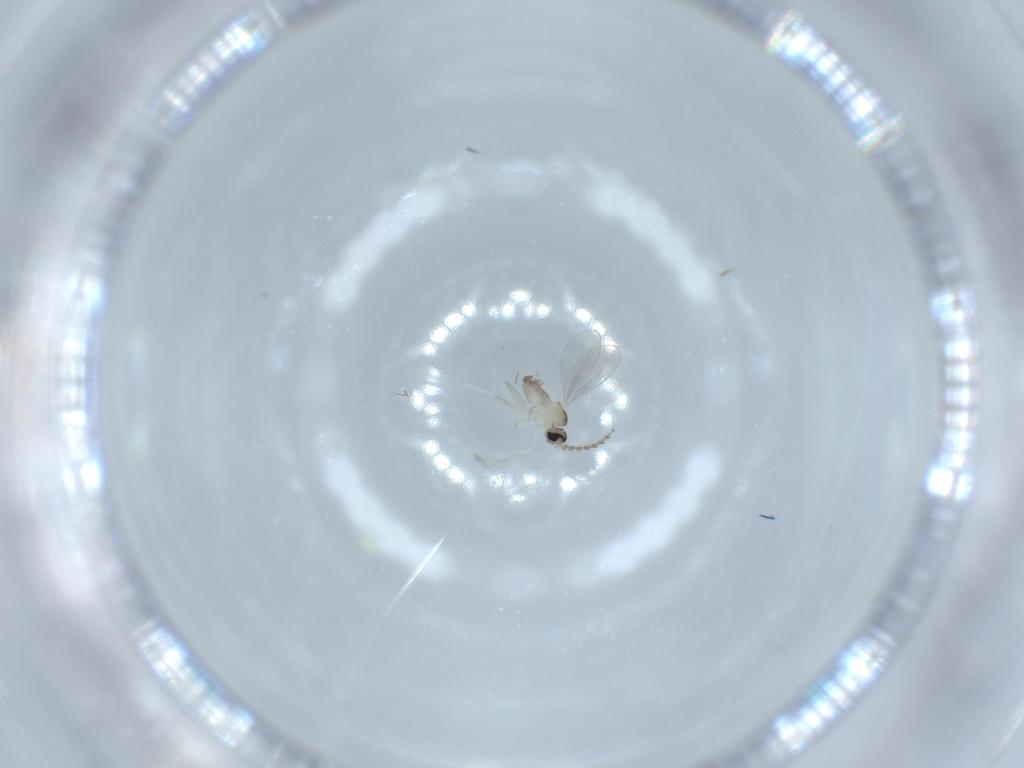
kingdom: Animalia
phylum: Arthropoda
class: Insecta
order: Diptera
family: Cecidomyiidae
